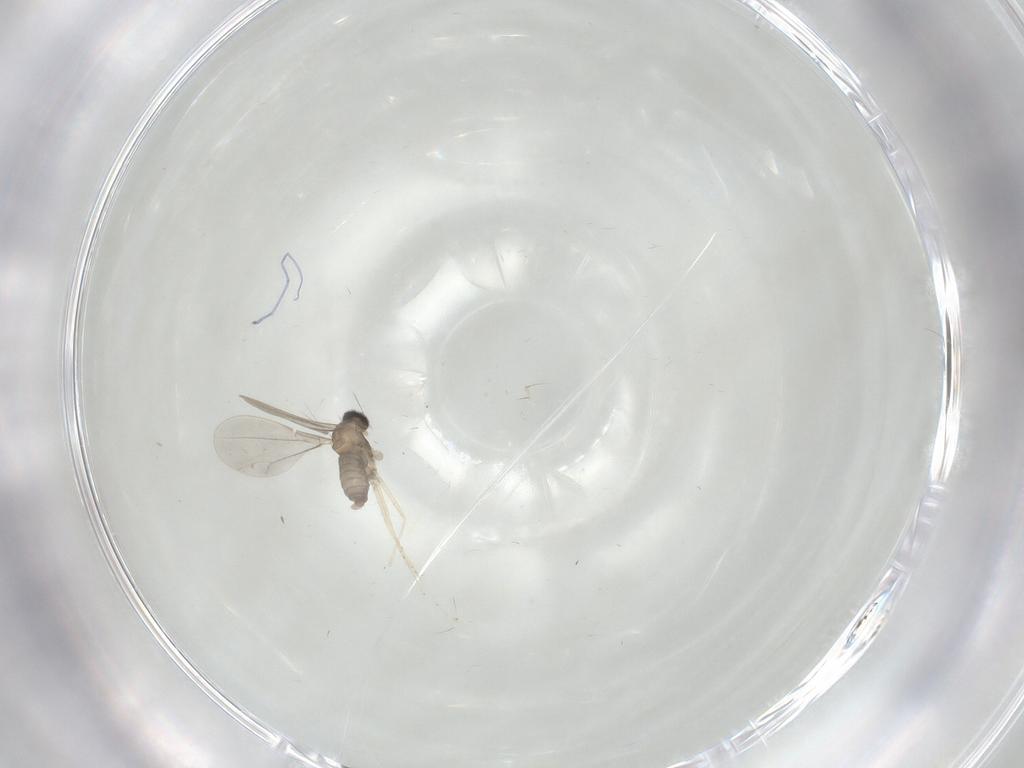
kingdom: Animalia
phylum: Arthropoda
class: Insecta
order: Diptera
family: Cecidomyiidae
